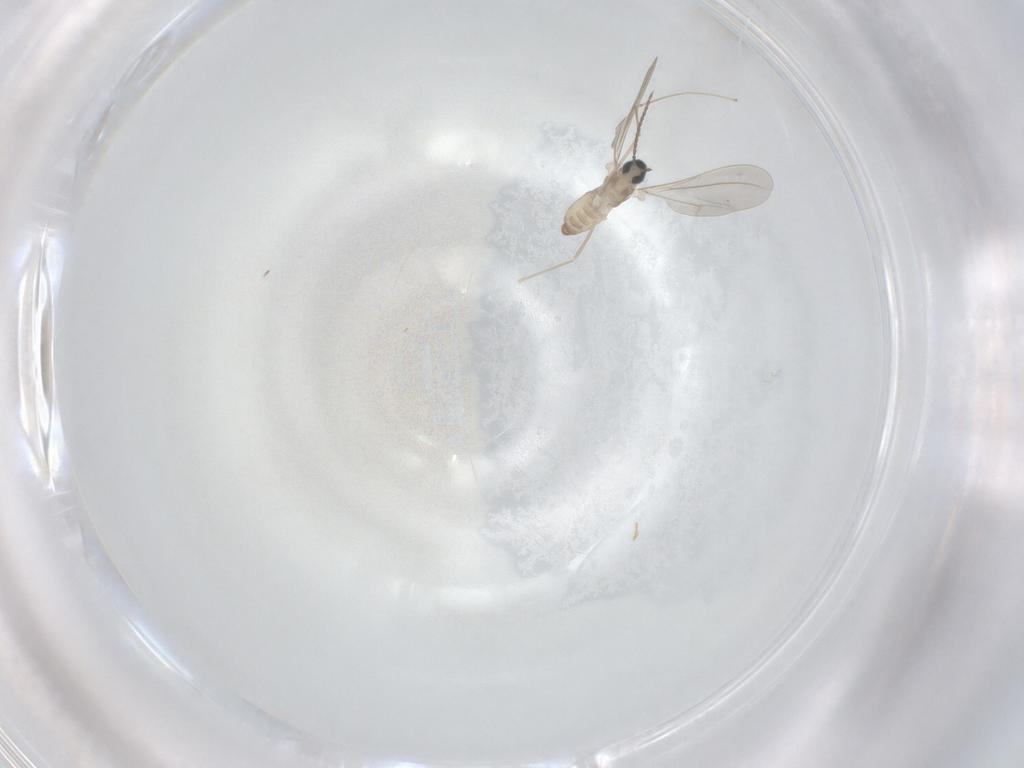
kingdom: Animalia
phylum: Arthropoda
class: Insecta
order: Diptera
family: Cecidomyiidae
